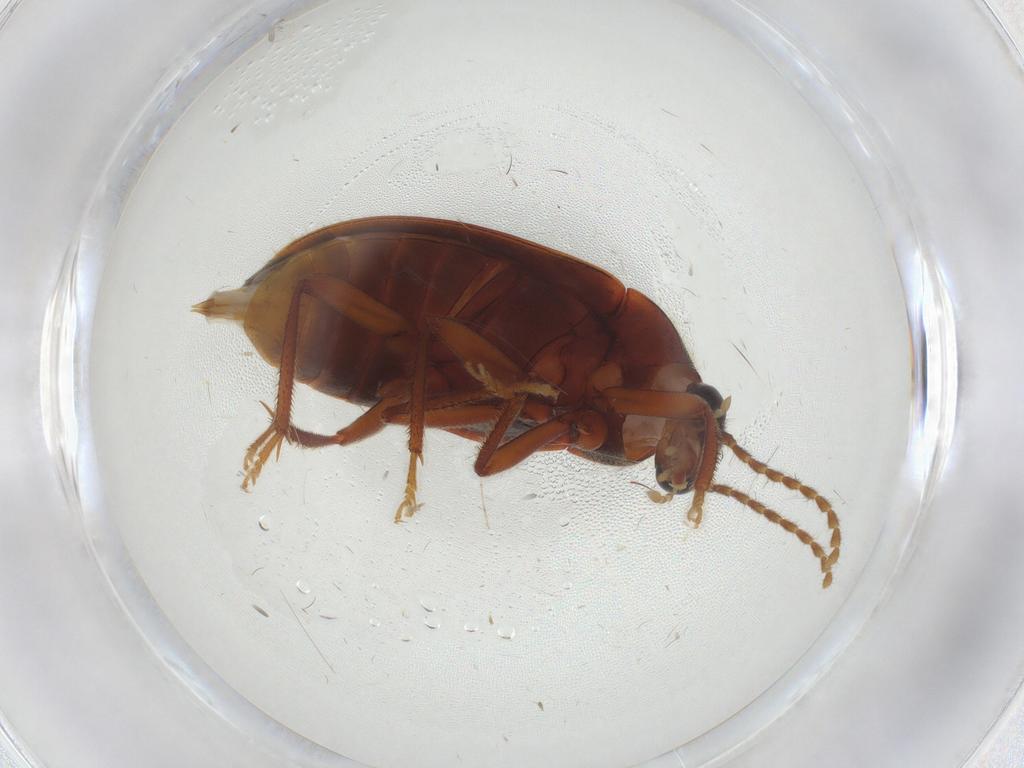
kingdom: Animalia
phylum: Arthropoda
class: Insecta
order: Coleoptera
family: Ptilodactylidae
